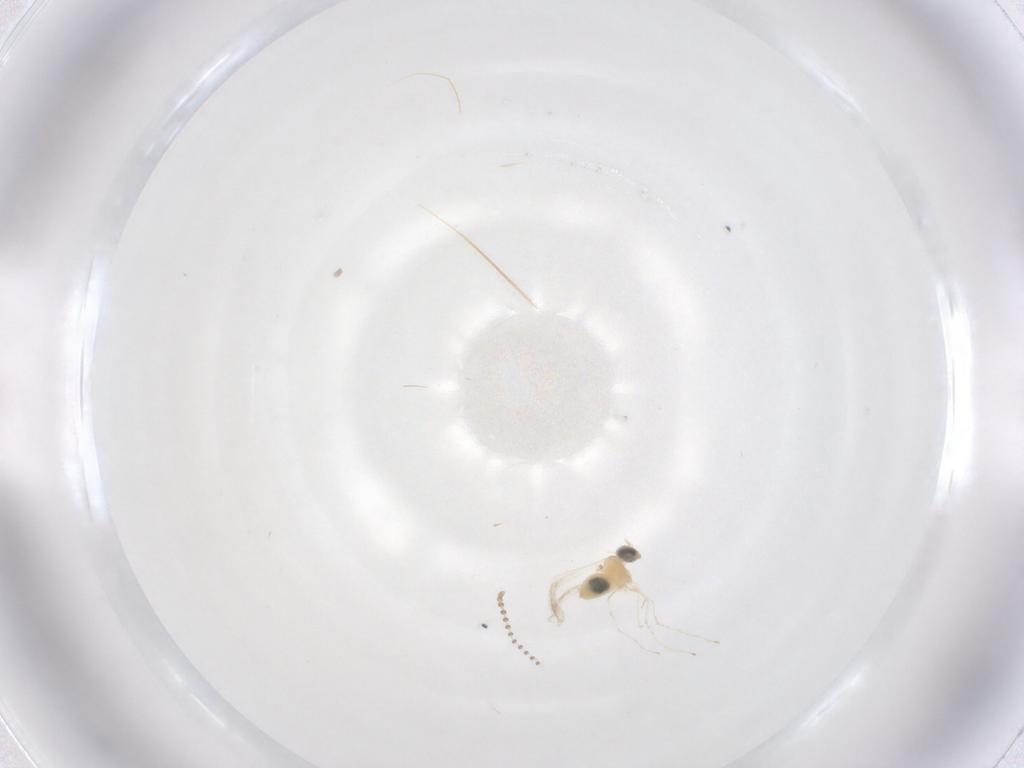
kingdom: Animalia
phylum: Arthropoda
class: Insecta
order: Diptera
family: Psychodidae
